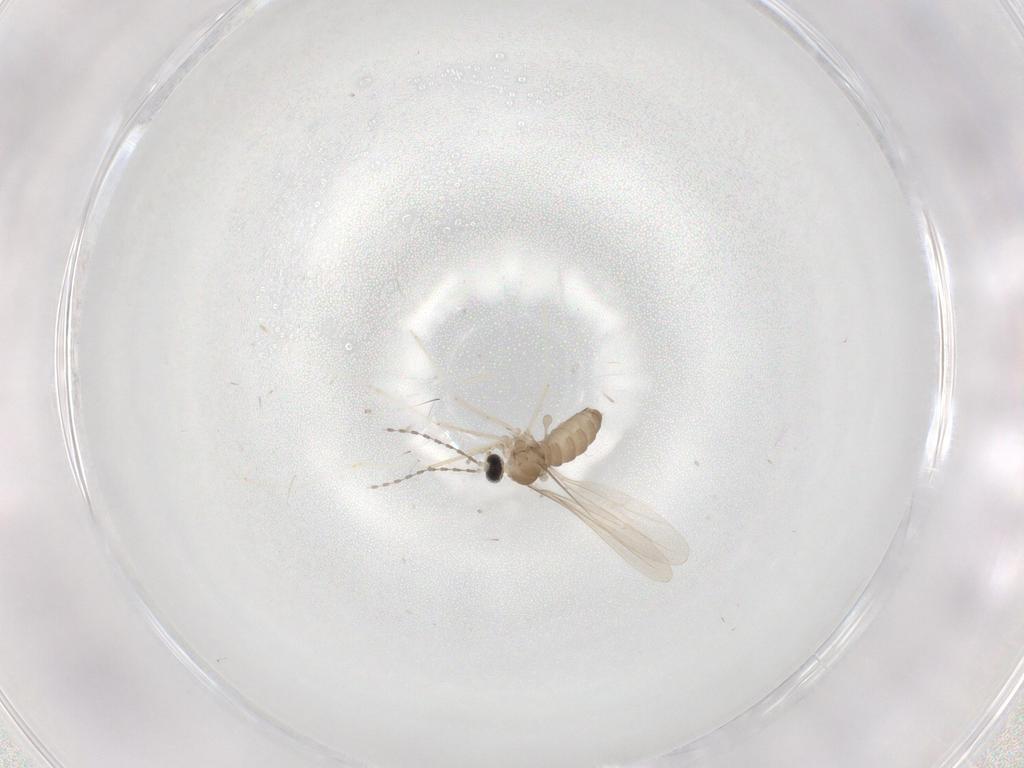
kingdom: Animalia
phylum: Arthropoda
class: Insecta
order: Diptera
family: Cecidomyiidae
